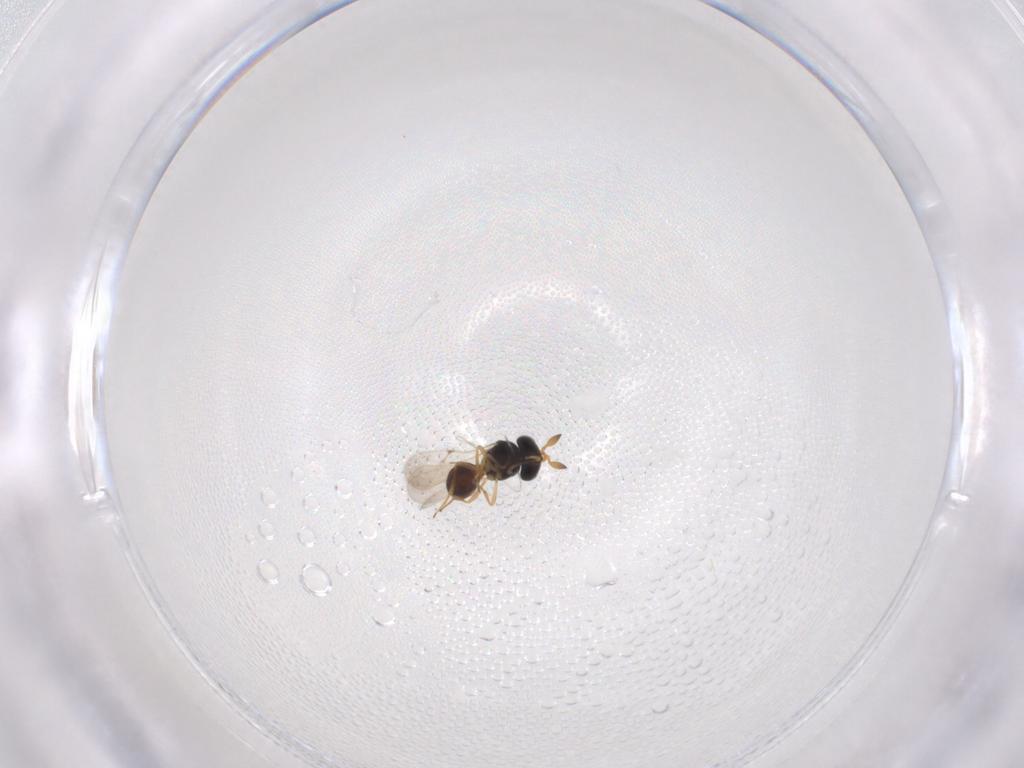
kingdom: Animalia
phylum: Arthropoda
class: Insecta
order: Hymenoptera
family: Scelionidae
